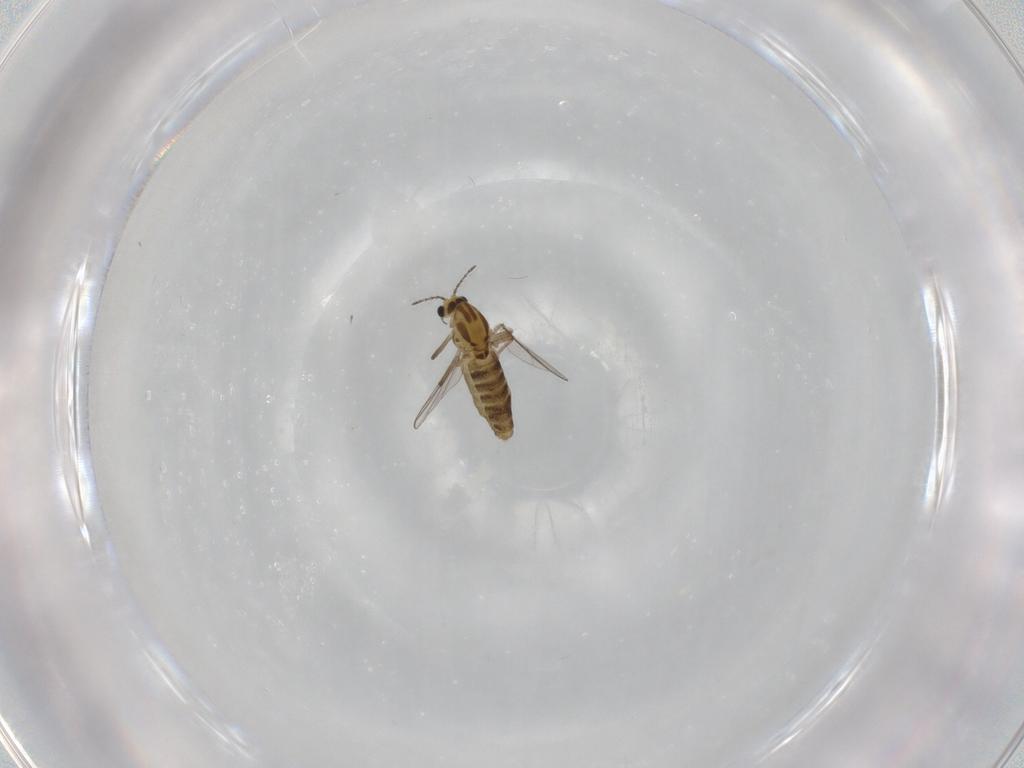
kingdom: Animalia
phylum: Arthropoda
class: Insecta
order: Diptera
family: Chironomidae
